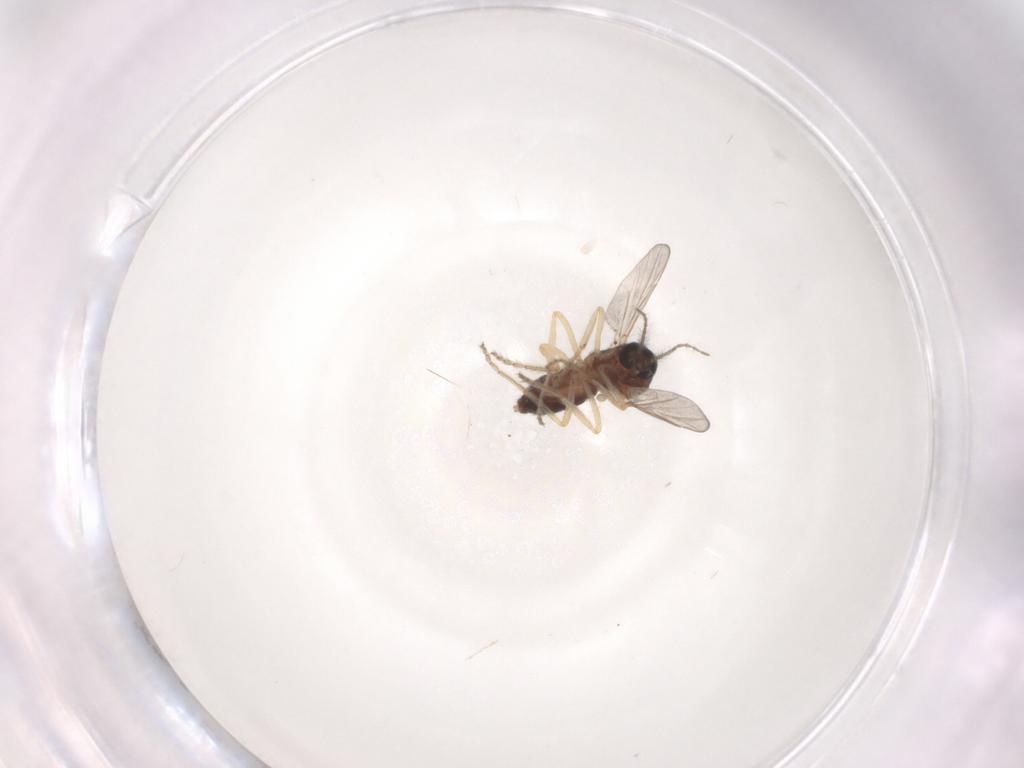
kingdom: Animalia
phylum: Arthropoda
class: Insecta
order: Diptera
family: Ceratopogonidae
